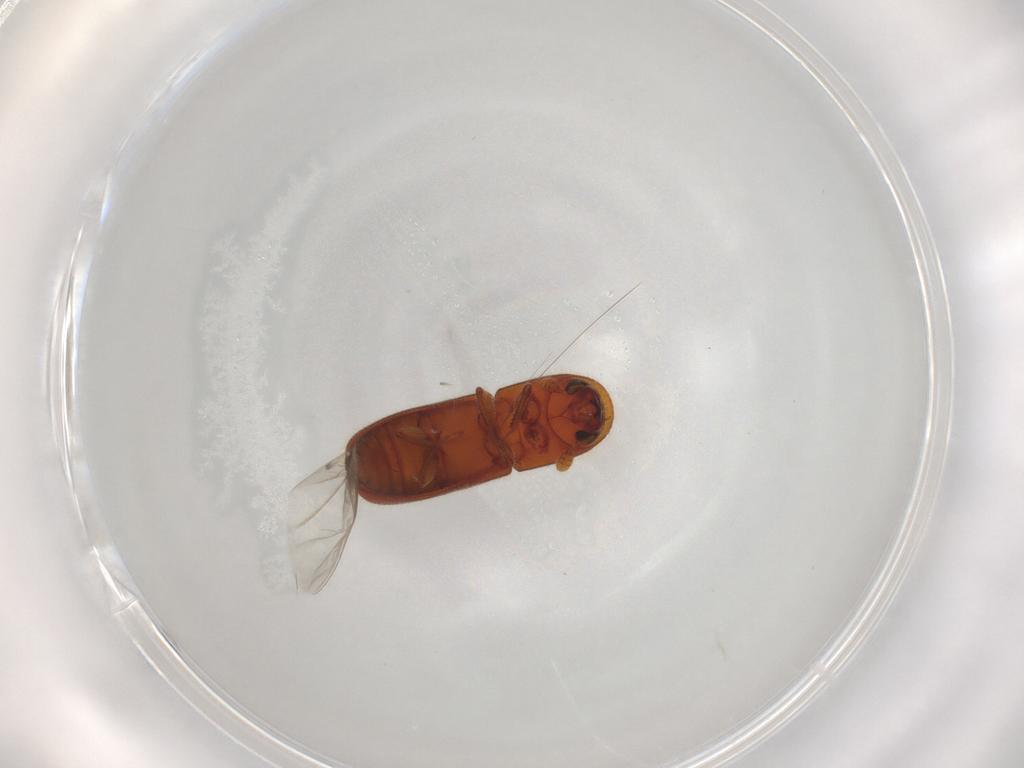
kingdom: Animalia
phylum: Arthropoda
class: Insecta
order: Coleoptera
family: Curculionidae
